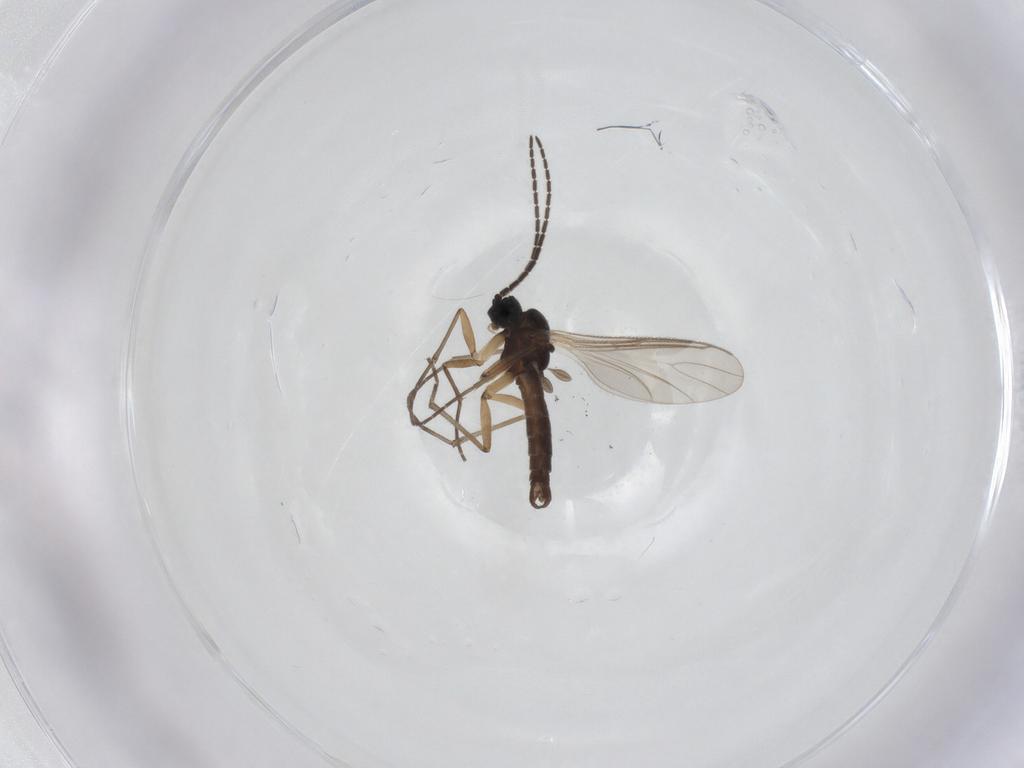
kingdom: Animalia
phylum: Arthropoda
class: Insecta
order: Diptera
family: Sciaridae
